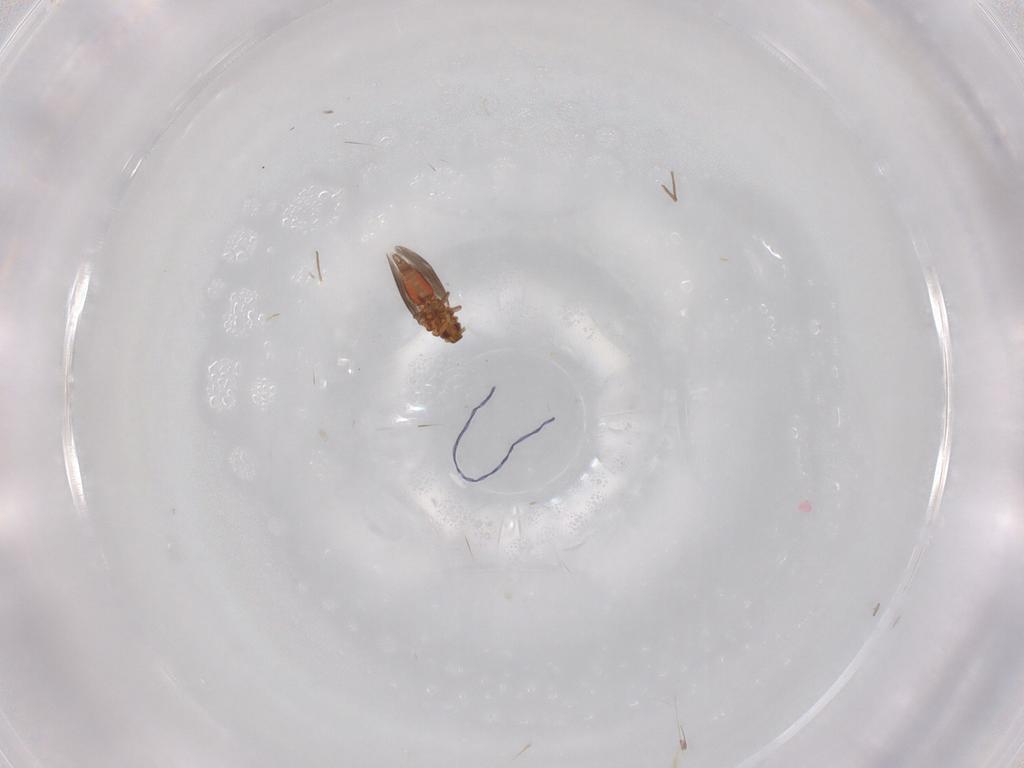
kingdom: Animalia
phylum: Arthropoda
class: Insecta
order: Hemiptera
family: Aleyrodidae
